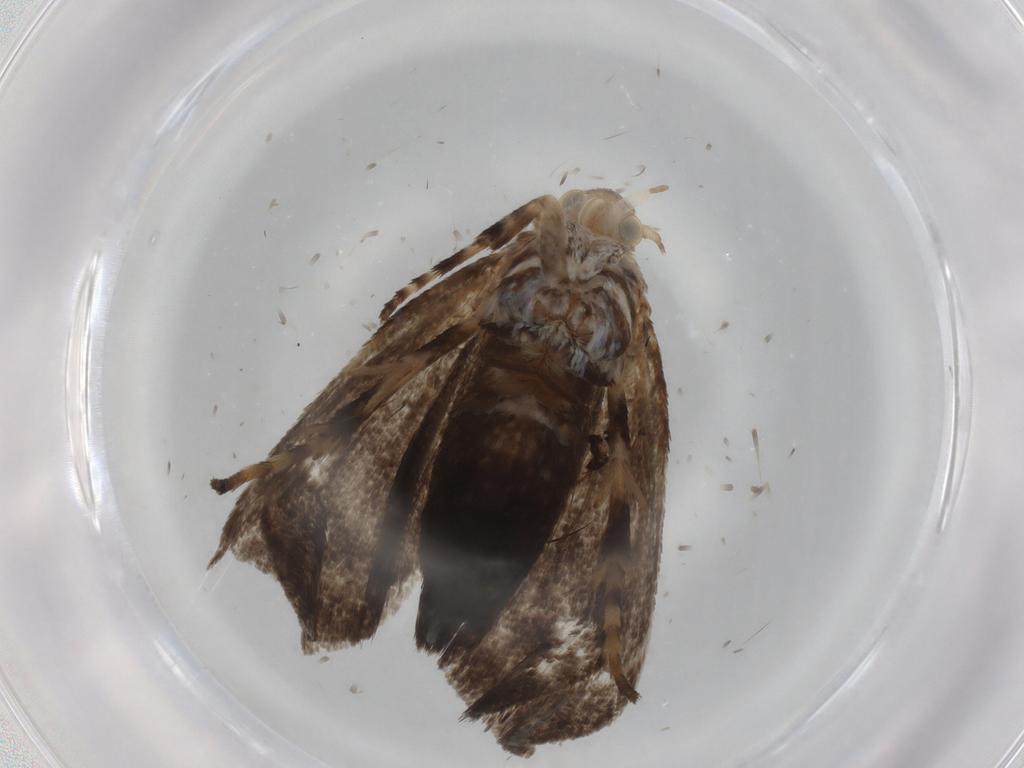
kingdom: Animalia
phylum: Arthropoda
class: Insecta
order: Lepidoptera
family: Choreutidae
